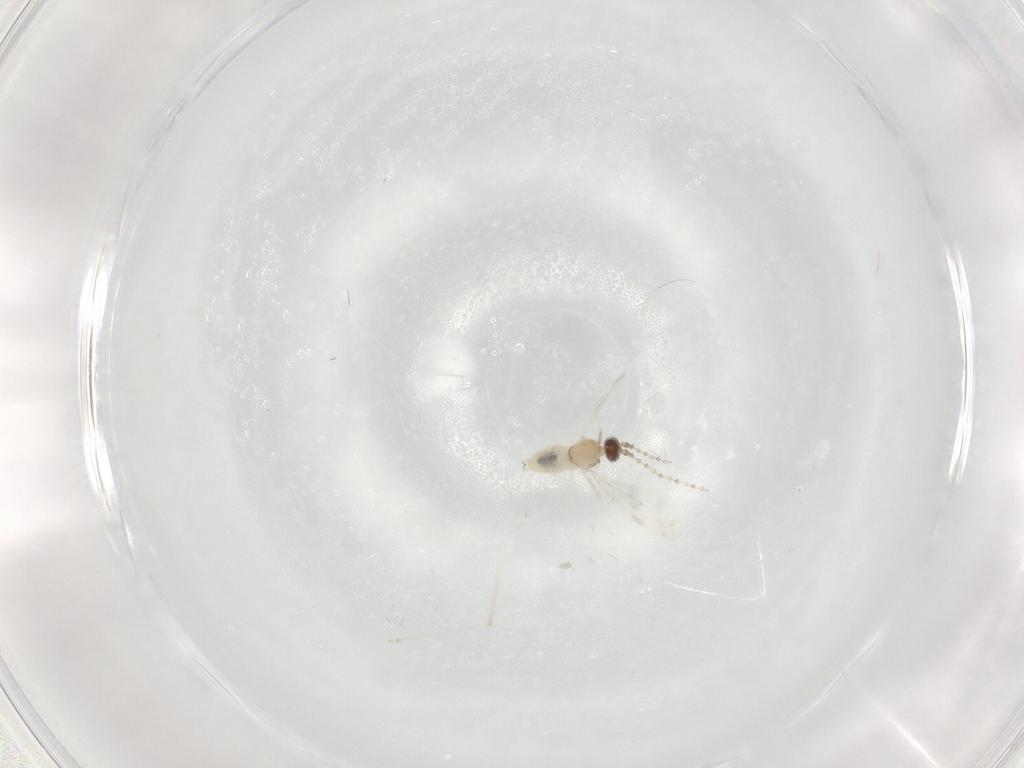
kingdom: Animalia
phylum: Arthropoda
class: Insecta
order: Diptera
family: Cecidomyiidae
